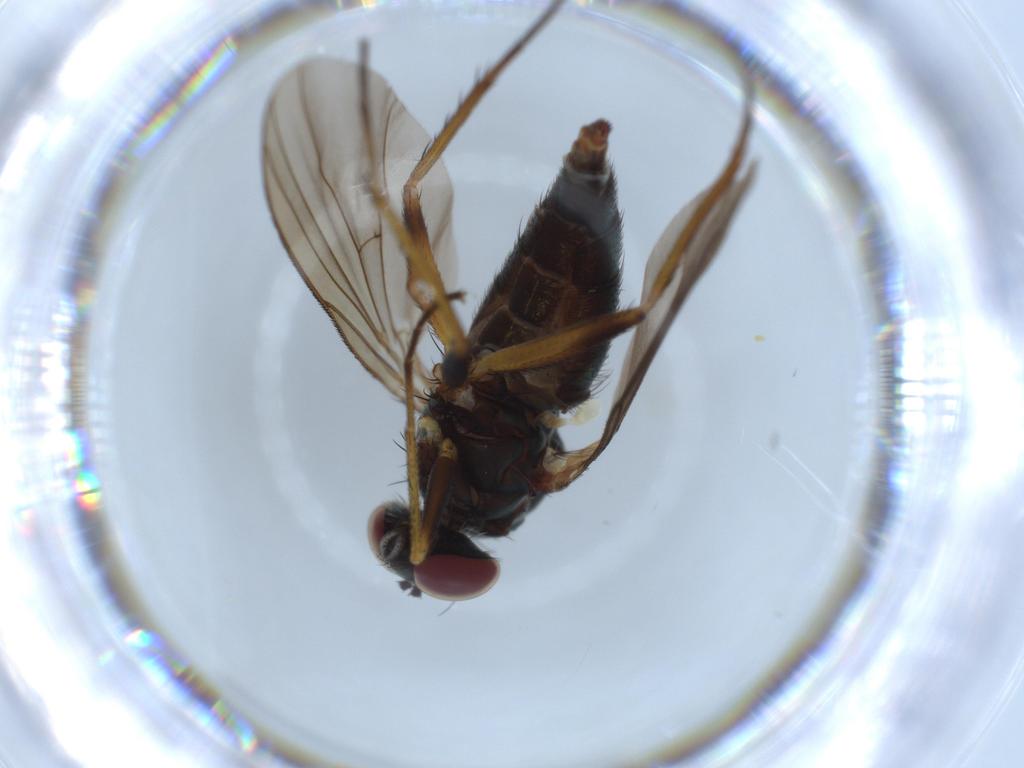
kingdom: Animalia
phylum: Arthropoda
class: Insecta
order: Diptera
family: Dolichopodidae
